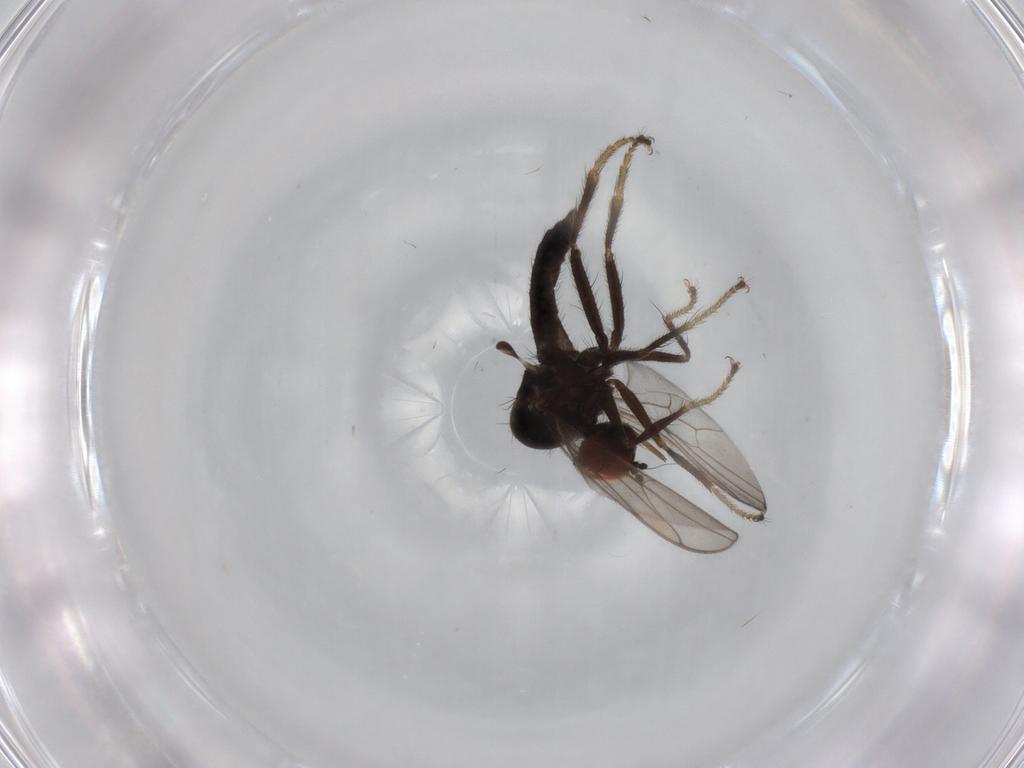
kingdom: Animalia
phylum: Arthropoda
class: Insecta
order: Diptera
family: Hybotidae
